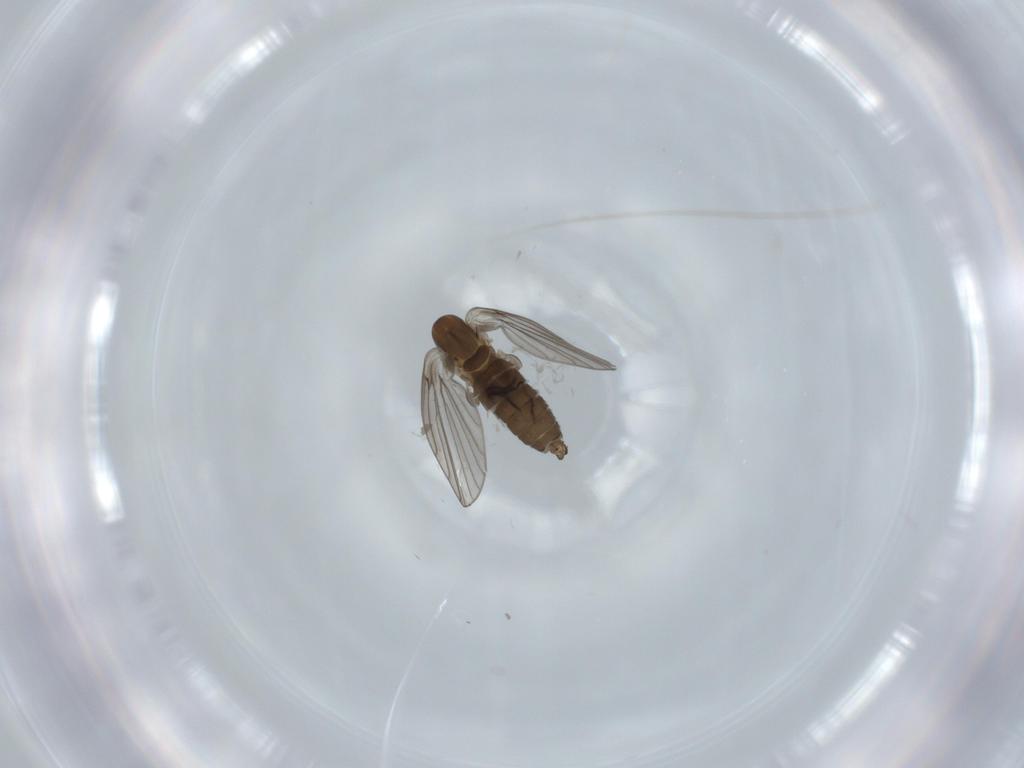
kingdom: Animalia
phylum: Arthropoda
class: Insecta
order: Diptera
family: Psychodidae
